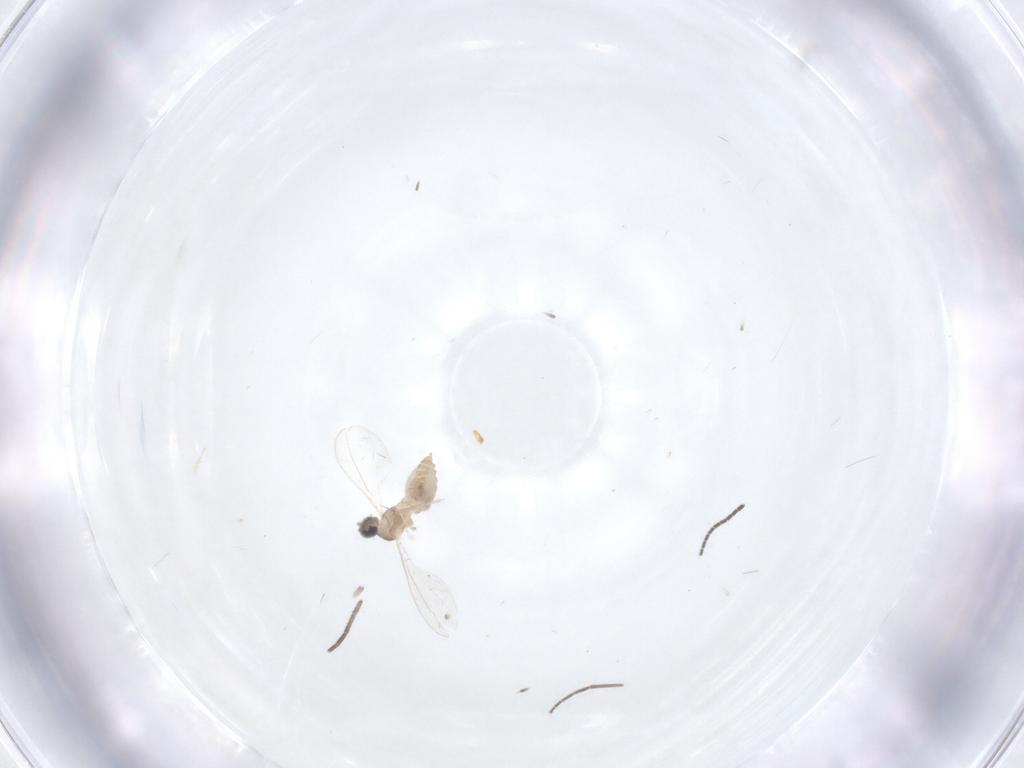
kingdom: Animalia
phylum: Arthropoda
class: Insecta
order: Diptera
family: Cecidomyiidae
